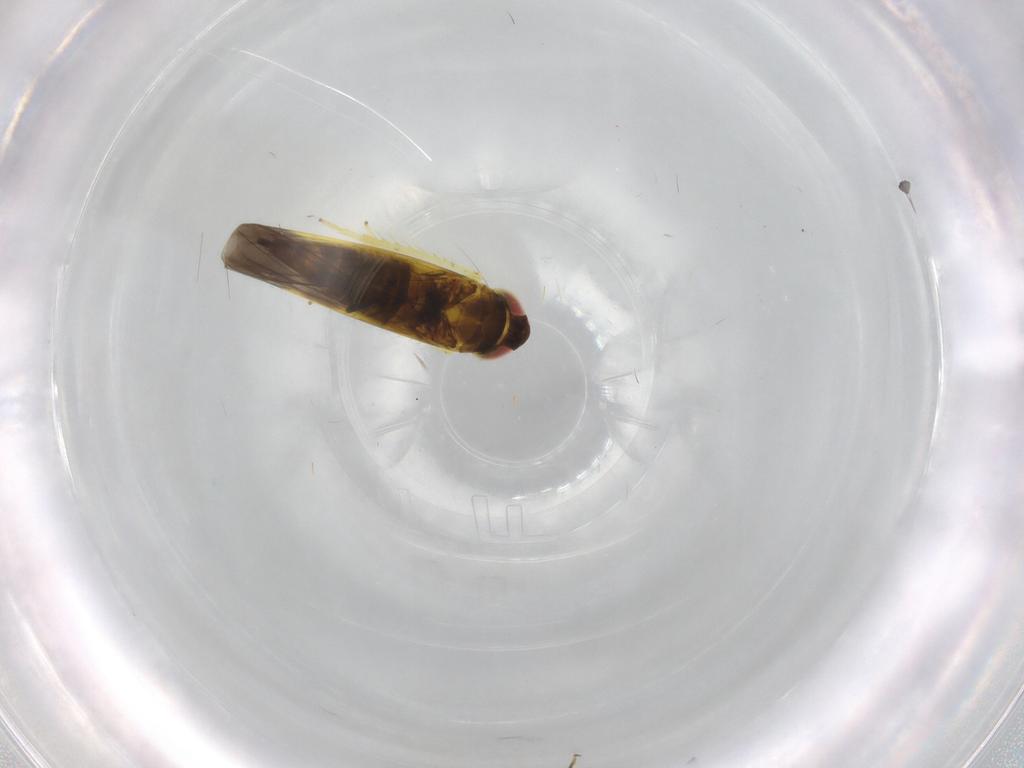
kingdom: Animalia
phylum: Arthropoda
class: Insecta
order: Hemiptera
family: Cicadellidae
